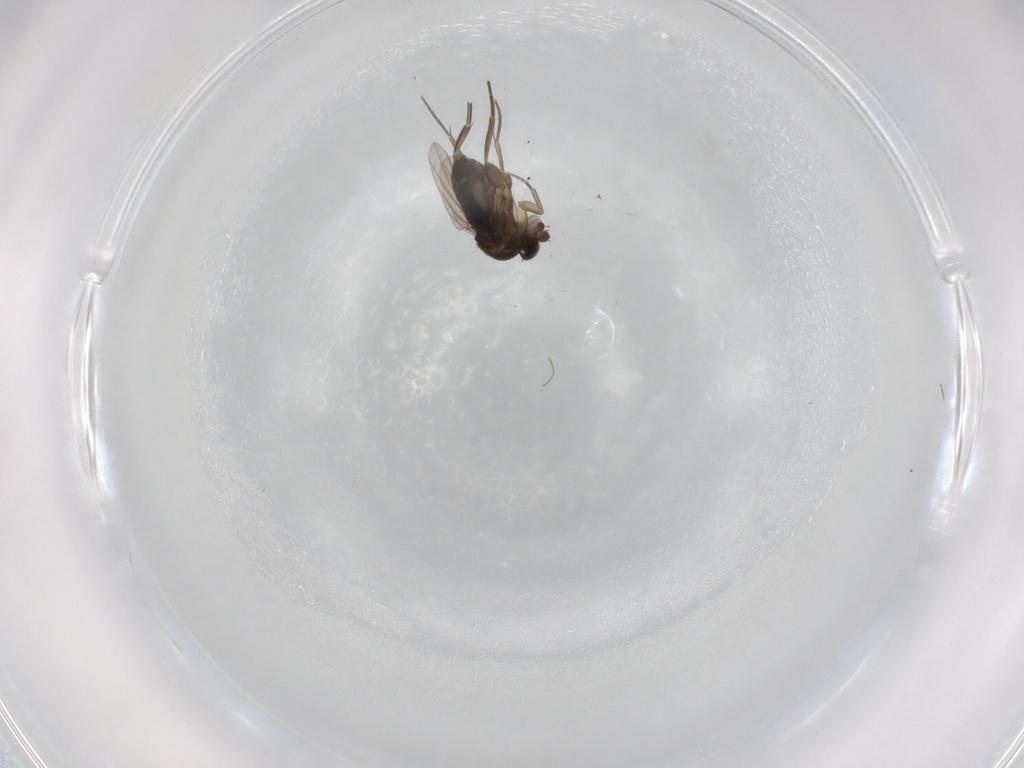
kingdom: Animalia
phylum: Arthropoda
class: Insecta
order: Diptera
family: Phoridae
